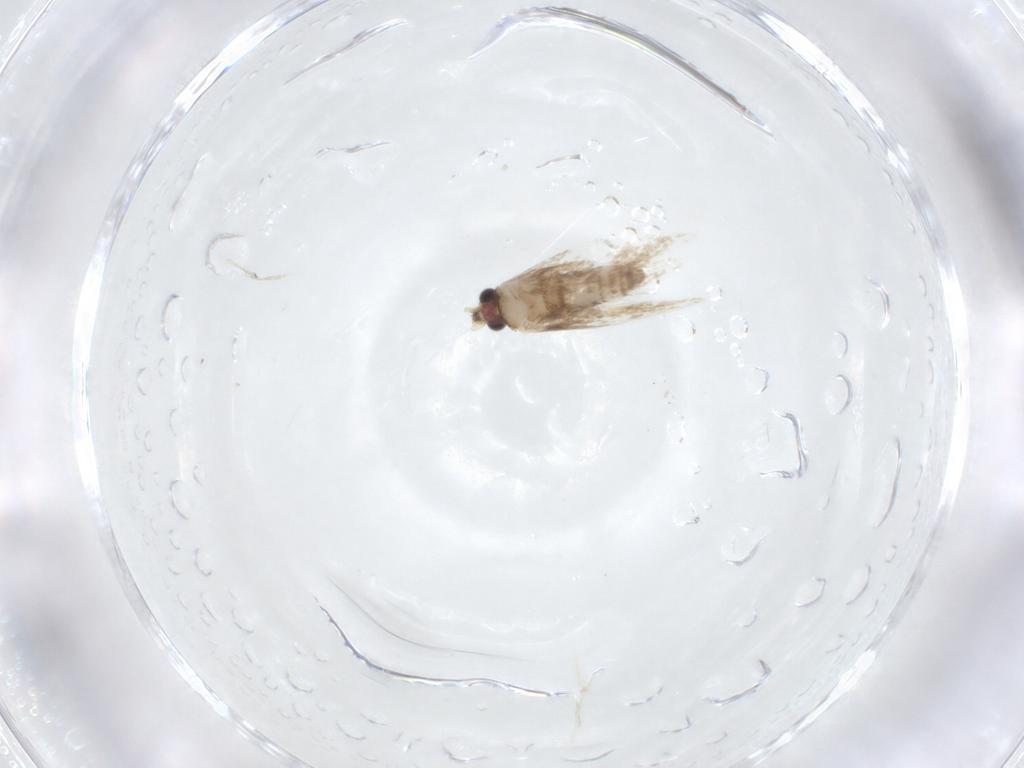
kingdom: Animalia
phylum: Arthropoda
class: Insecta
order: Lepidoptera
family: Nepticulidae
